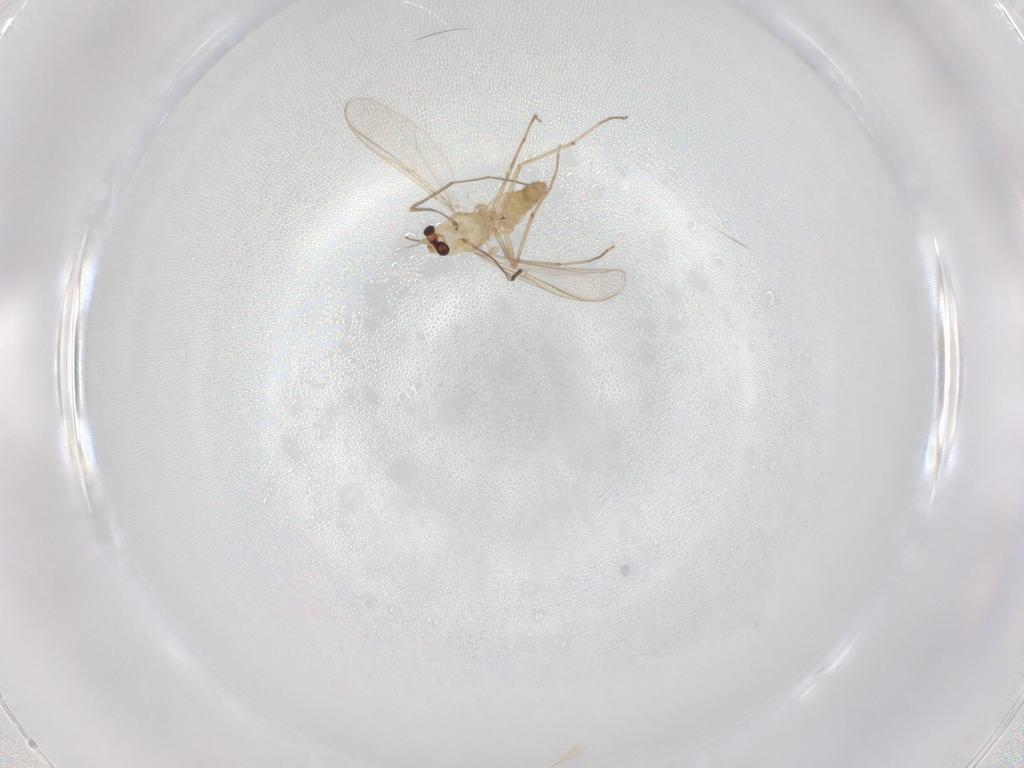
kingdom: Animalia
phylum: Arthropoda
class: Insecta
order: Diptera
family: Chironomidae
